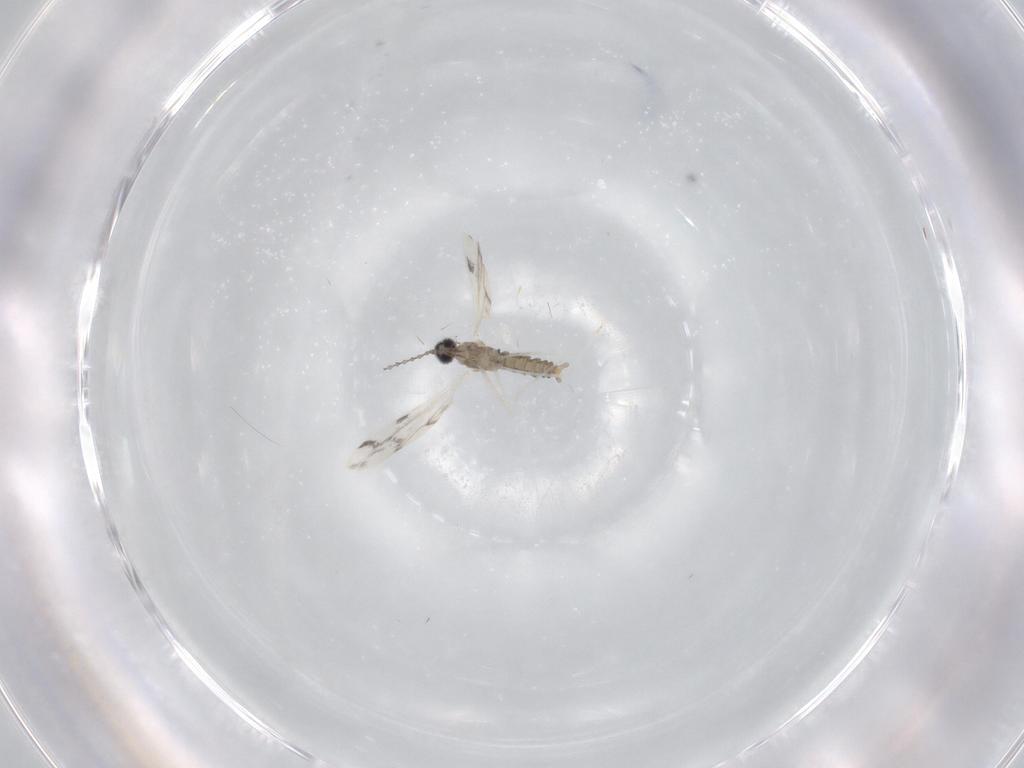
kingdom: Animalia
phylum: Arthropoda
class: Insecta
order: Diptera
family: Cecidomyiidae
